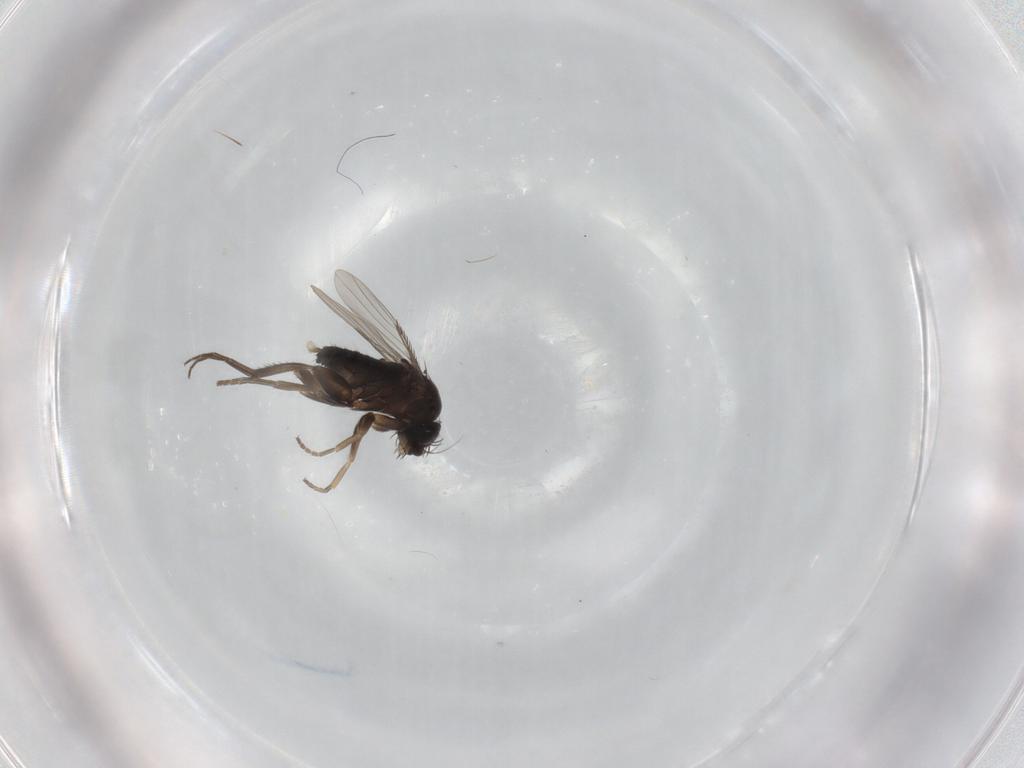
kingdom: Animalia
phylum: Arthropoda
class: Insecta
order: Diptera
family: Phoridae
